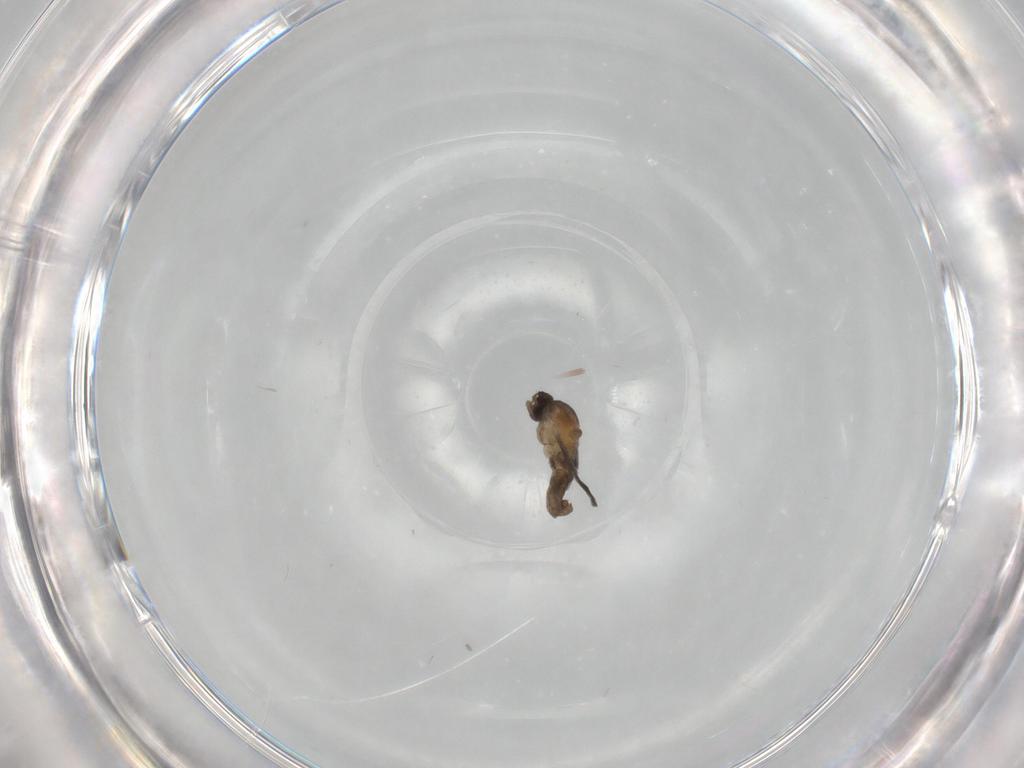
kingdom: Animalia
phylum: Arthropoda
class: Insecta
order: Diptera
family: Cecidomyiidae
